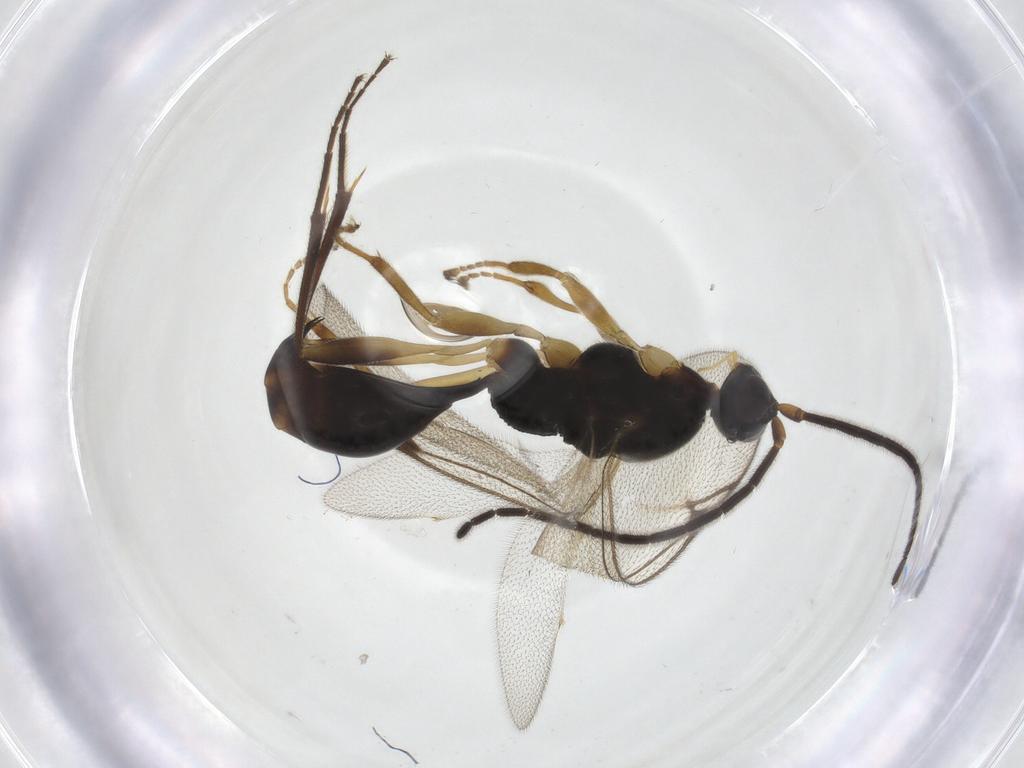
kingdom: Animalia
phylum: Arthropoda
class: Insecta
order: Hymenoptera
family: Proctotrupidae
